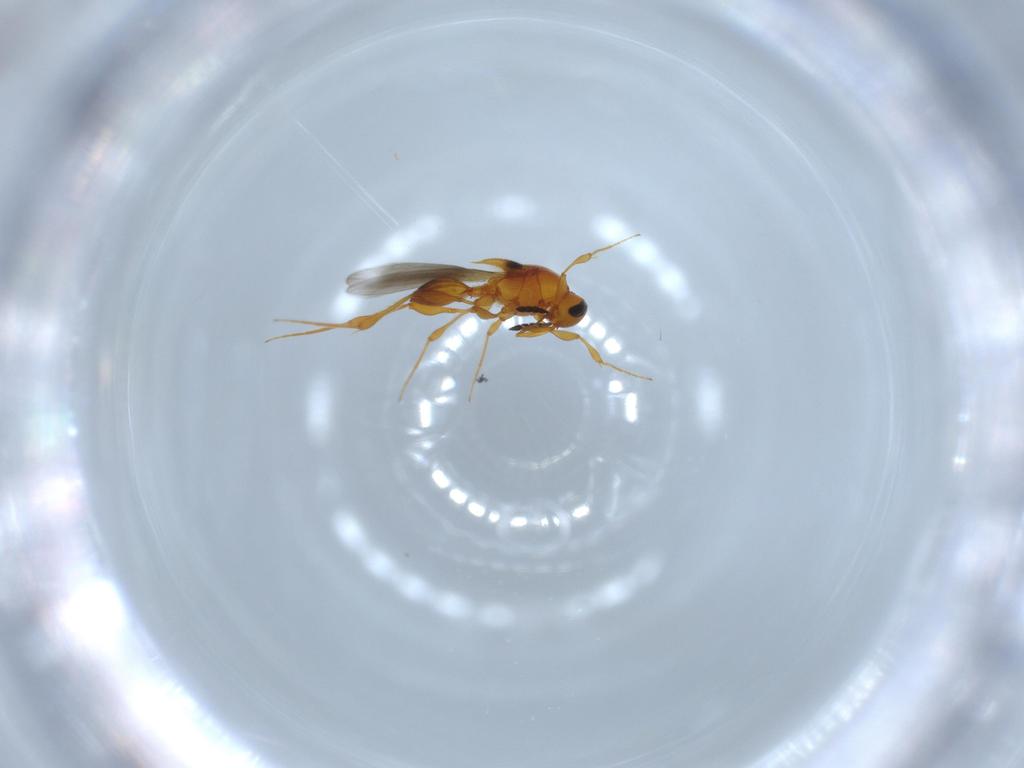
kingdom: Animalia
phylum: Arthropoda
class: Insecta
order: Hymenoptera
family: Platygastridae
